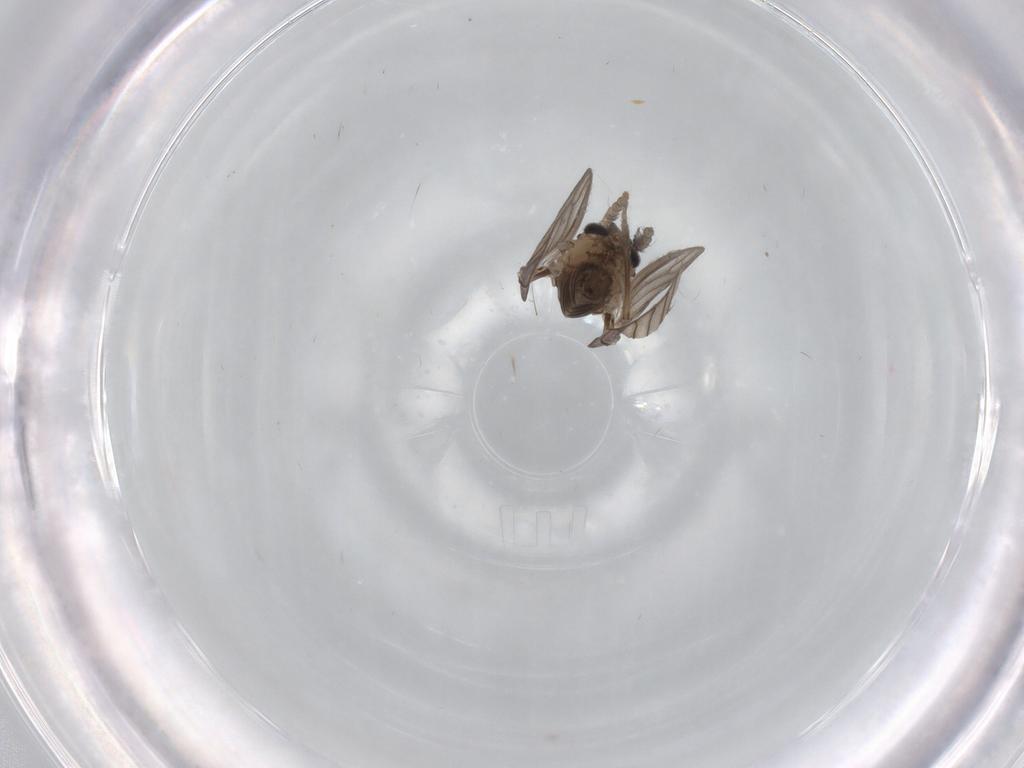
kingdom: Animalia
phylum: Arthropoda
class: Insecta
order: Diptera
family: Psychodidae
